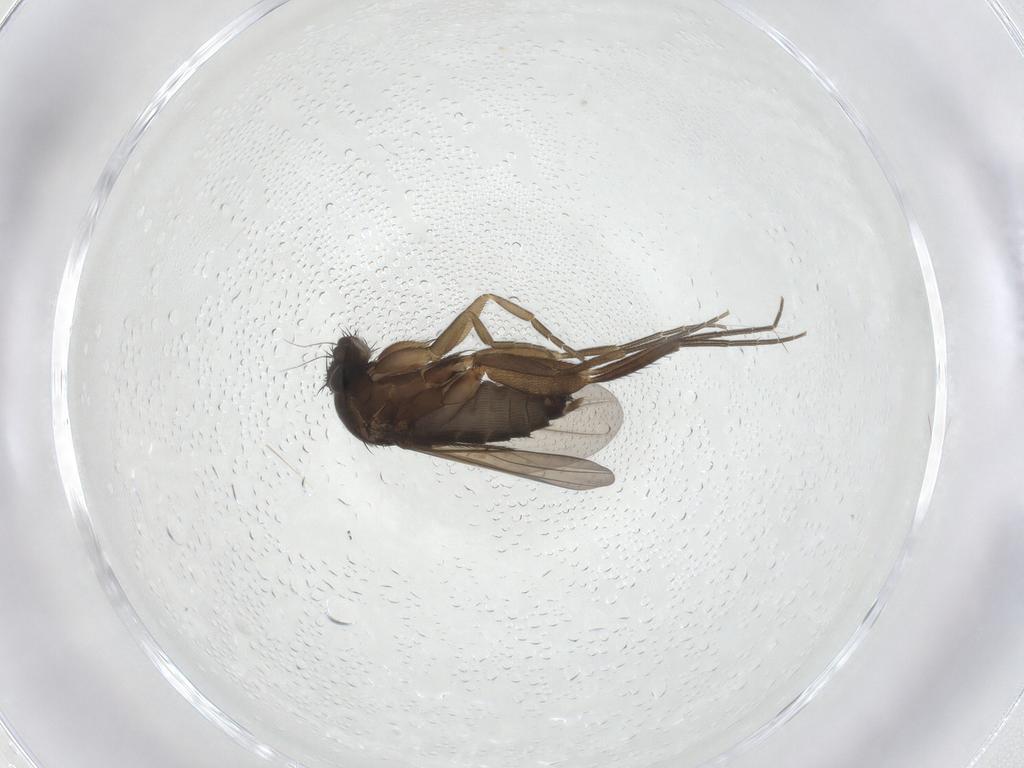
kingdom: Animalia
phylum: Arthropoda
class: Insecta
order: Diptera
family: Phoridae
